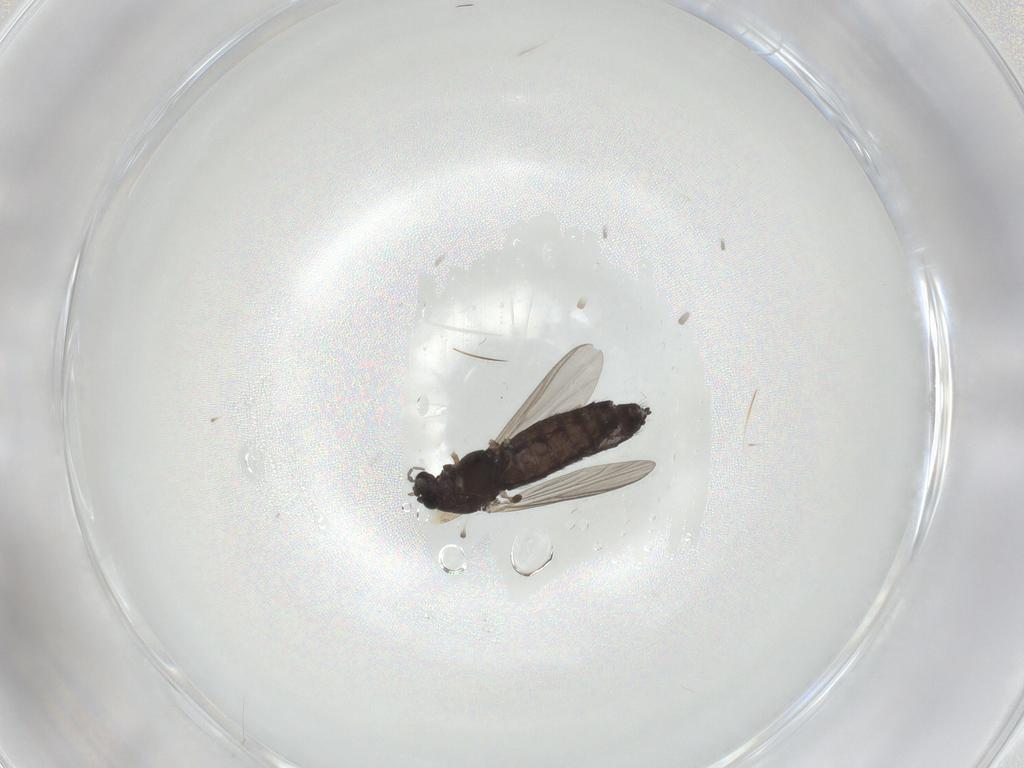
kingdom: Animalia
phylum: Arthropoda
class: Insecta
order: Diptera
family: Chironomidae
